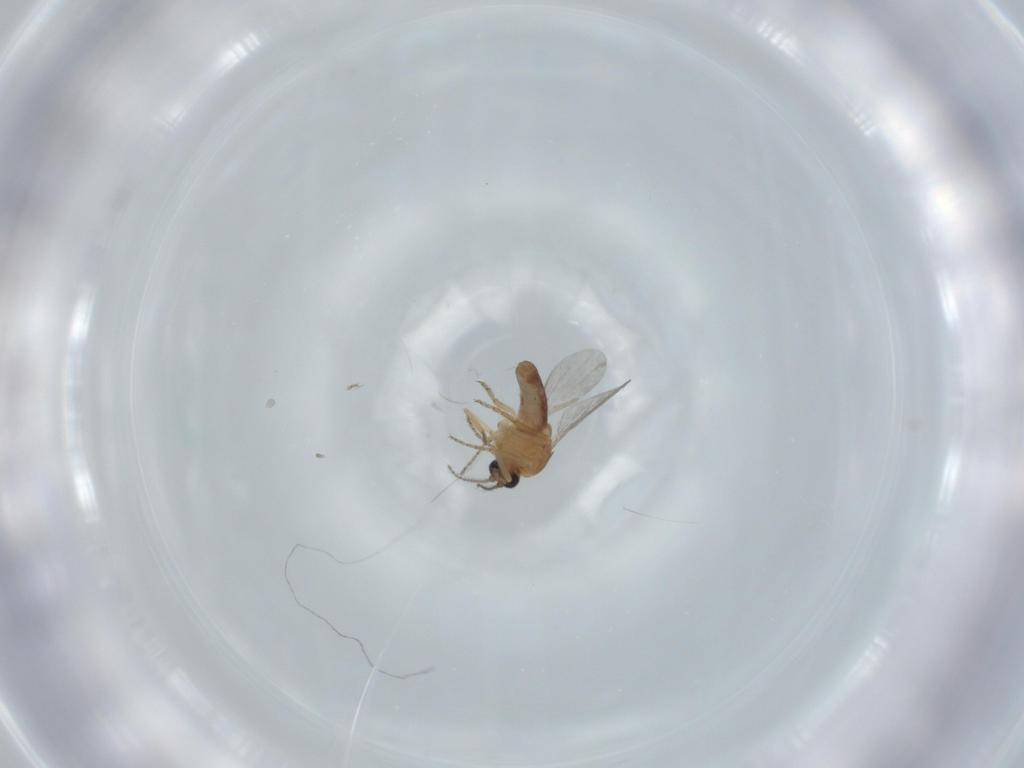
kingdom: Animalia
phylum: Arthropoda
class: Insecta
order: Diptera
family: Ceratopogonidae
